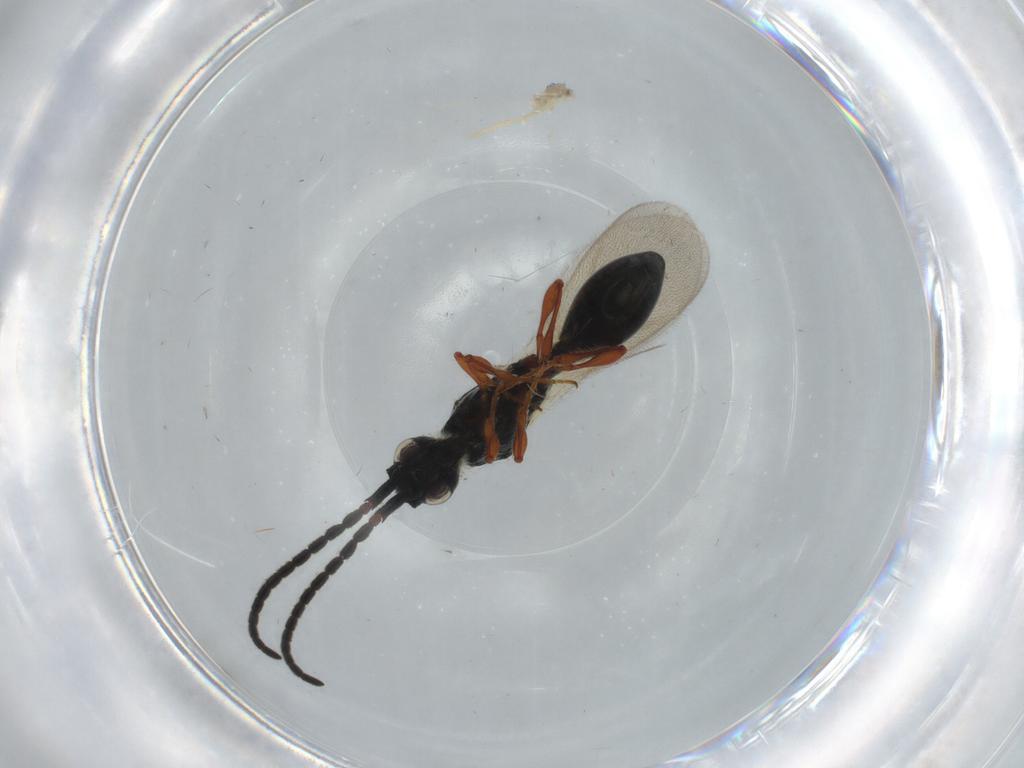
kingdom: Animalia
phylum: Arthropoda
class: Insecta
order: Hymenoptera
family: Diapriidae
